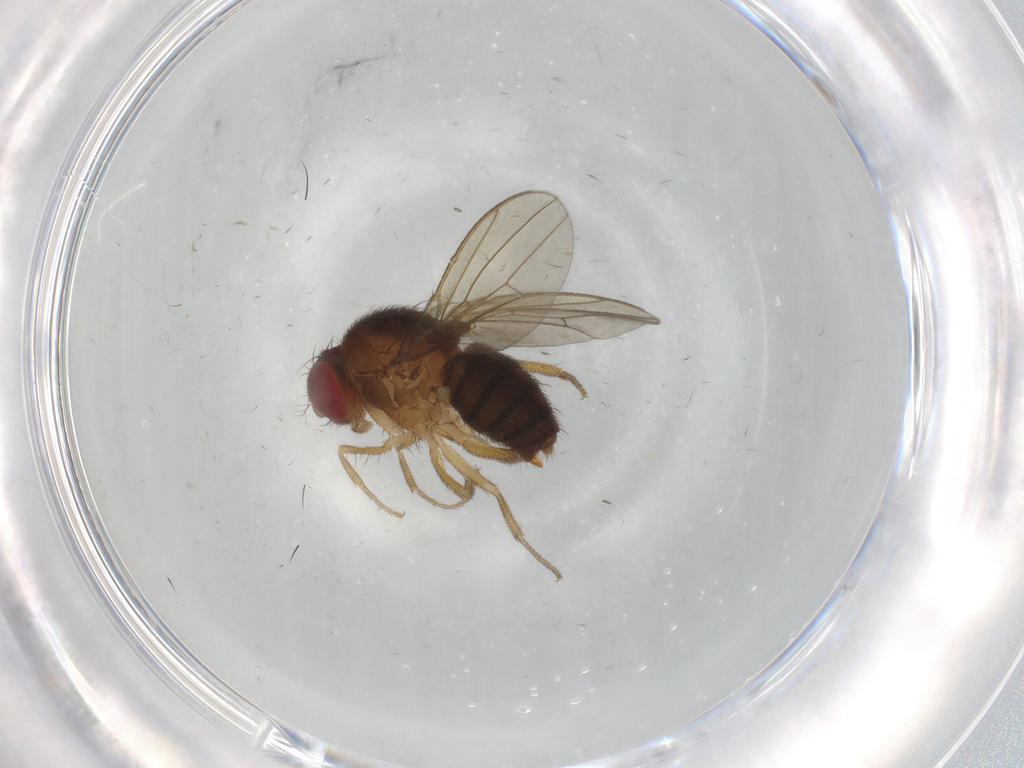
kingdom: Animalia
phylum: Arthropoda
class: Insecta
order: Diptera
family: Drosophilidae
